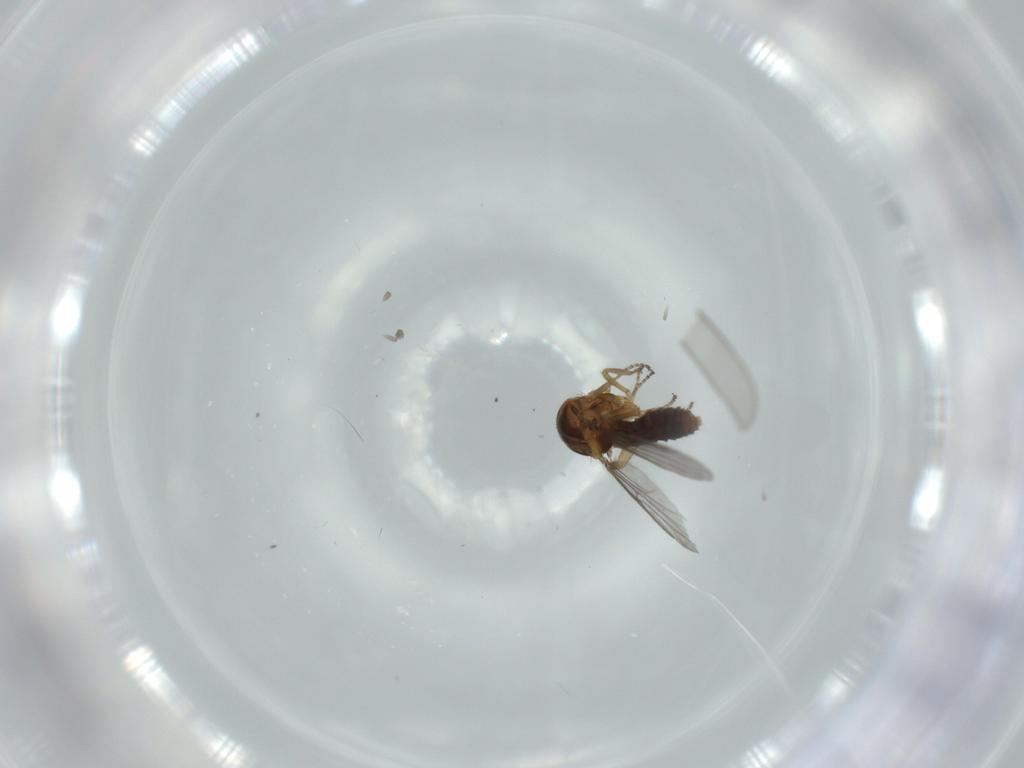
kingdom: Animalia
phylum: Arthropoda
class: Insecta
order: Diptera
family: Ceratopogonidae
